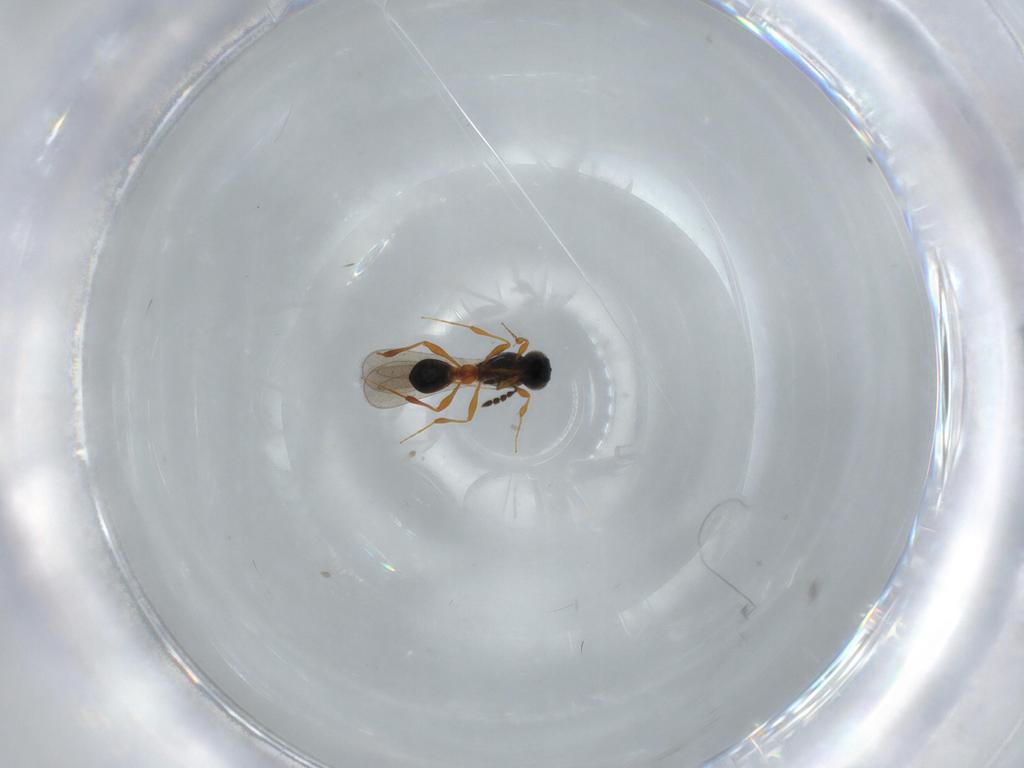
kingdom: Animalia
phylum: Arthropoda
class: Insecta
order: Hymenoptera
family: Platygastridae
